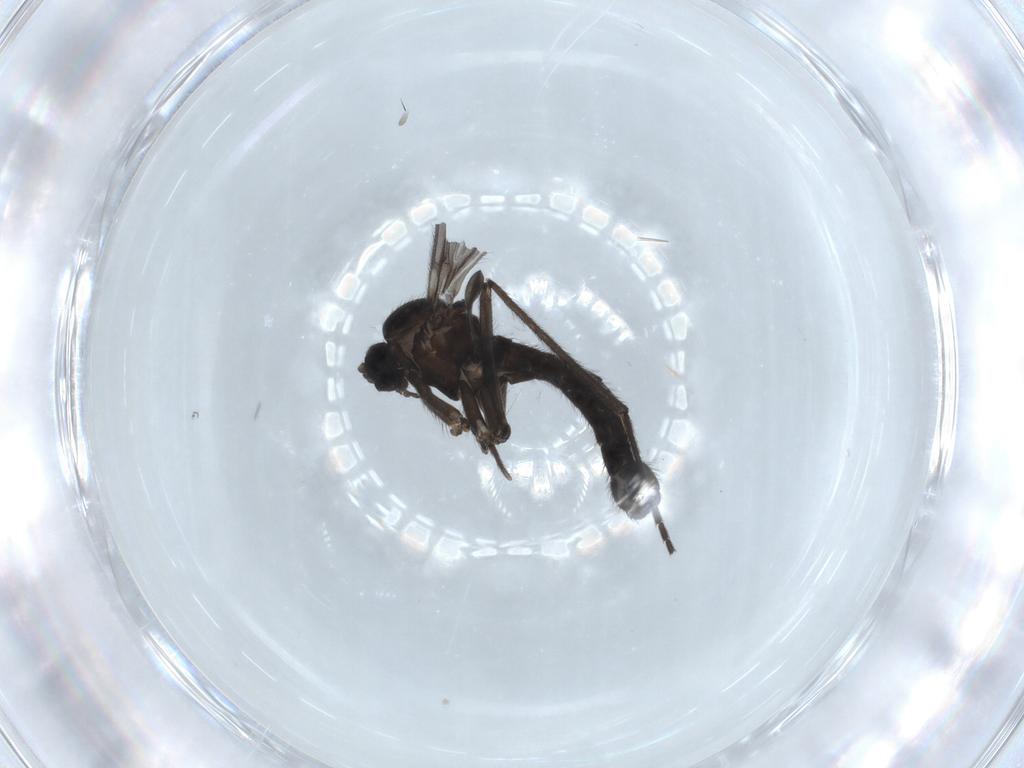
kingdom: Animalia
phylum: Arthropoda
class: Insecta
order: Diptera
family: Sciaridae
